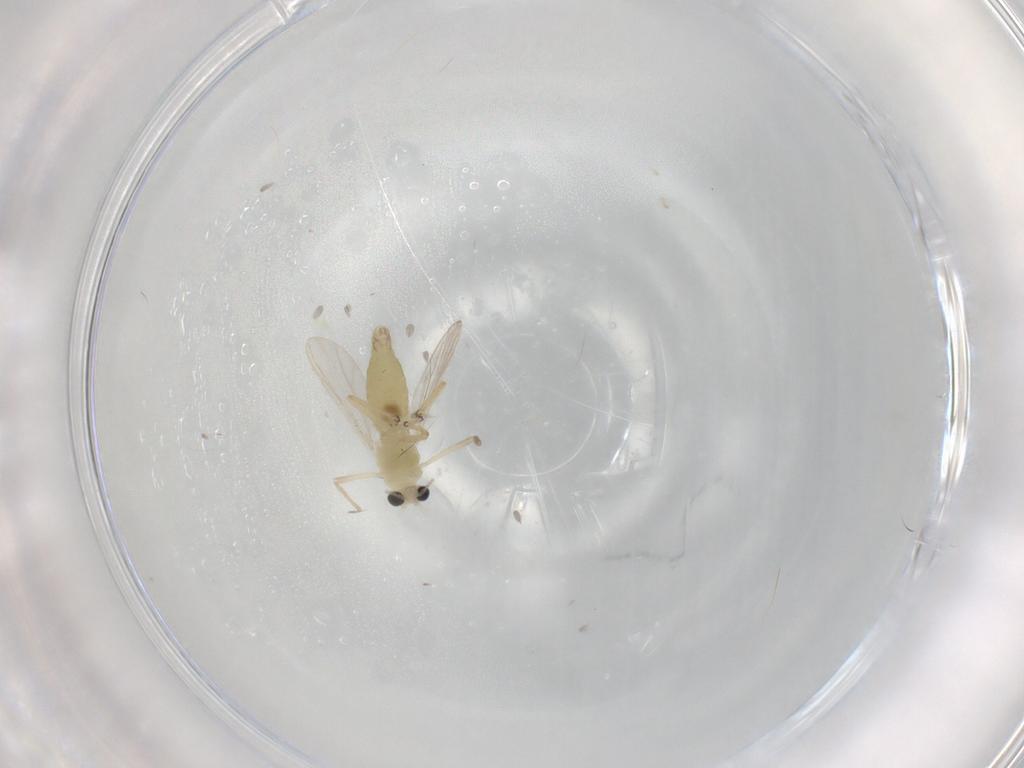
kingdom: Animalia
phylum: Arthropoda
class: Insecta
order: Diptera
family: Chironomidae
